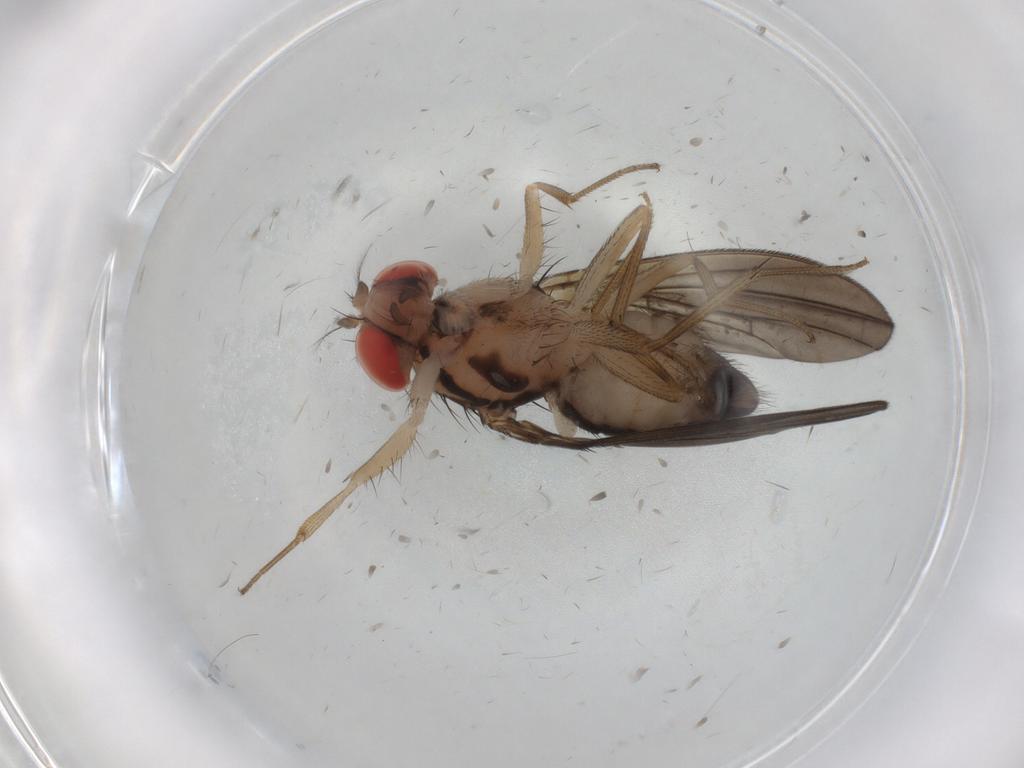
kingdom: Animalia
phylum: Arthropoda
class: Insecta
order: Diptera
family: Drosophilidae
